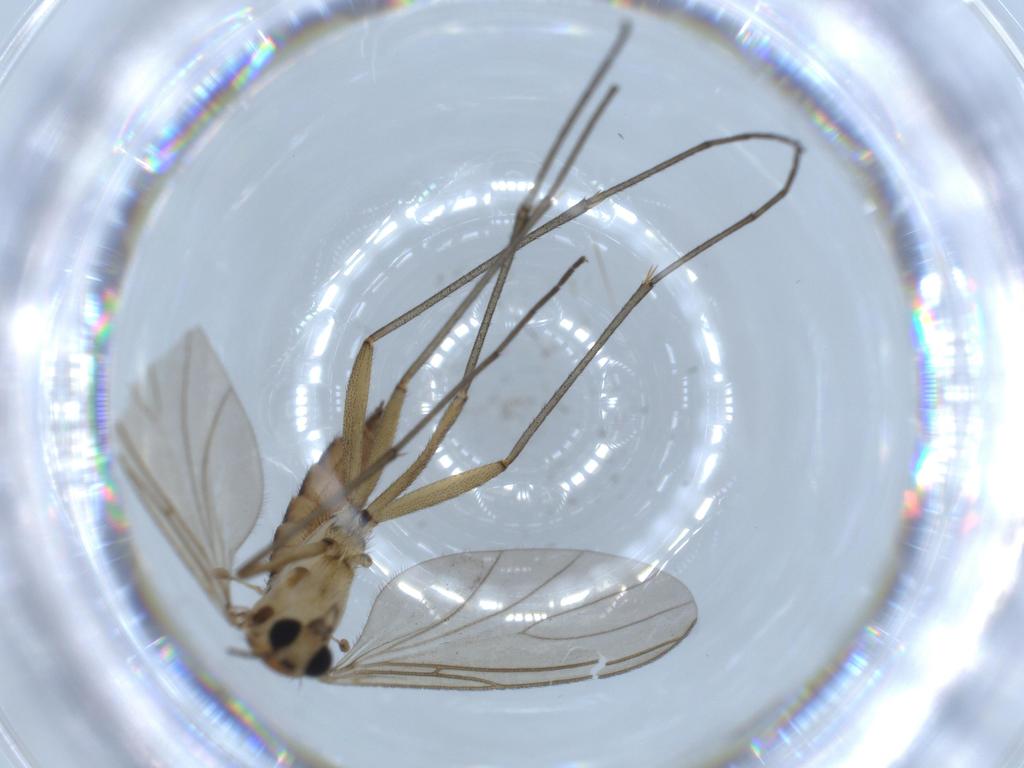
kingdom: Animalia
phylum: Arthropoda
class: Insecta
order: Diptera
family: Sciaridae
